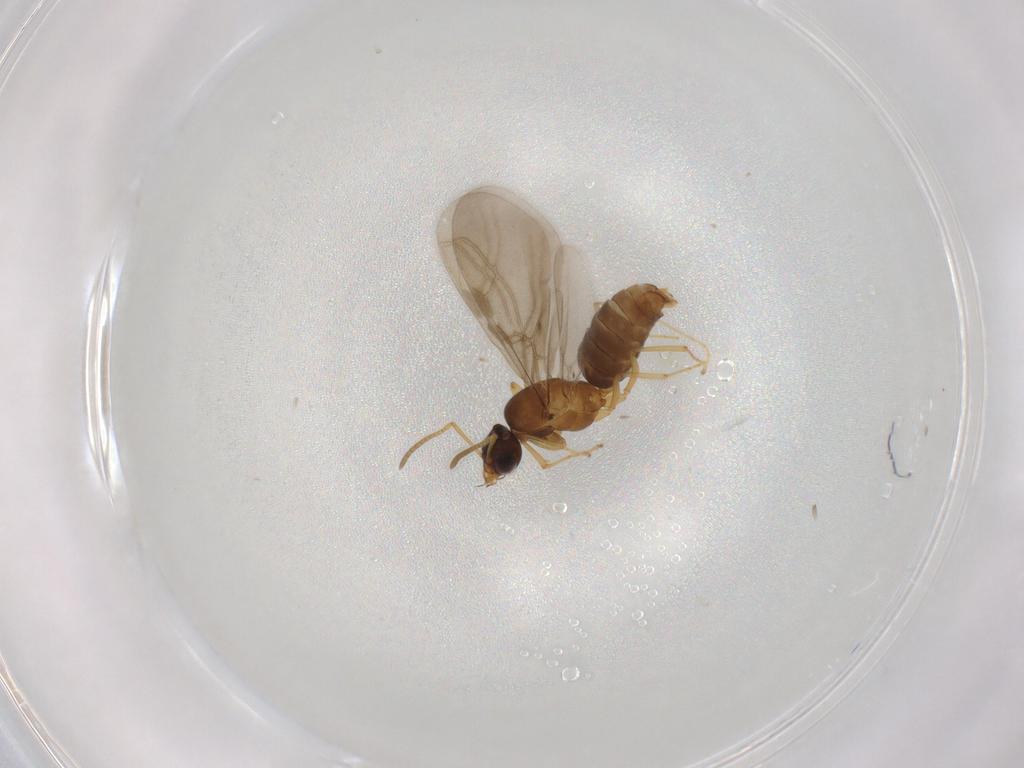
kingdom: Animalia
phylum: Arthropoda
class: Insecta
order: Hymenoptera
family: Formicidae
